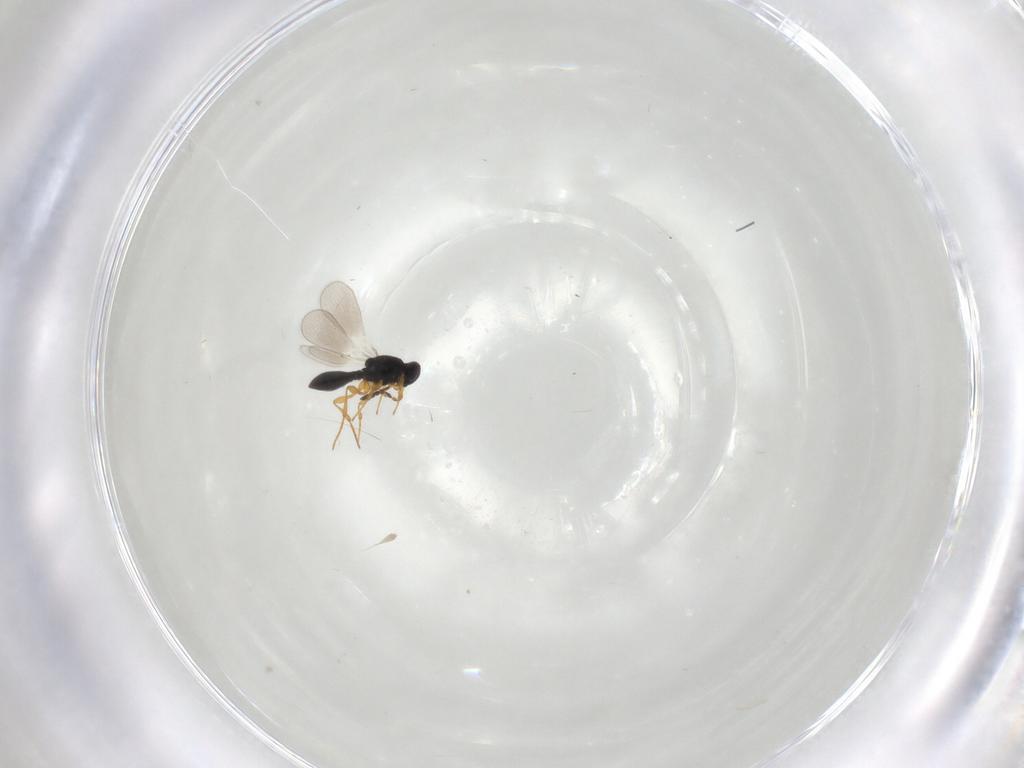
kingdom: Animalia
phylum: Arthropoda
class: Insecta
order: Hymenoptera
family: Platygastridae
